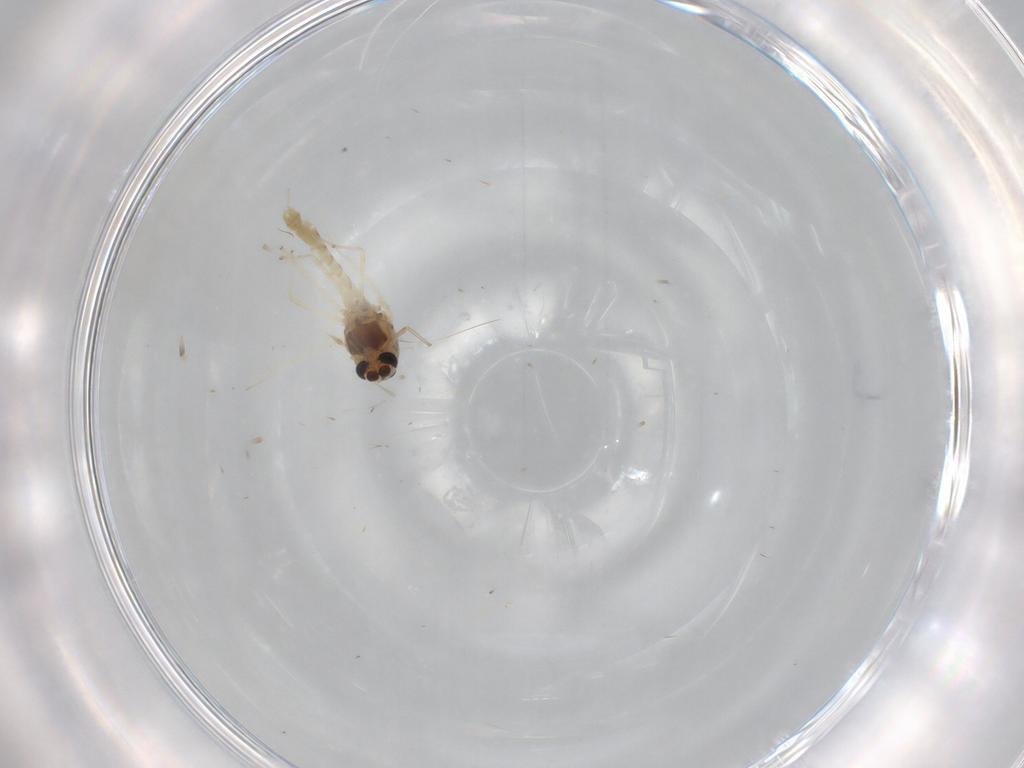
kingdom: Animalia
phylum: Arthropoda
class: Insecta
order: Diptera
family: Chironomidae
